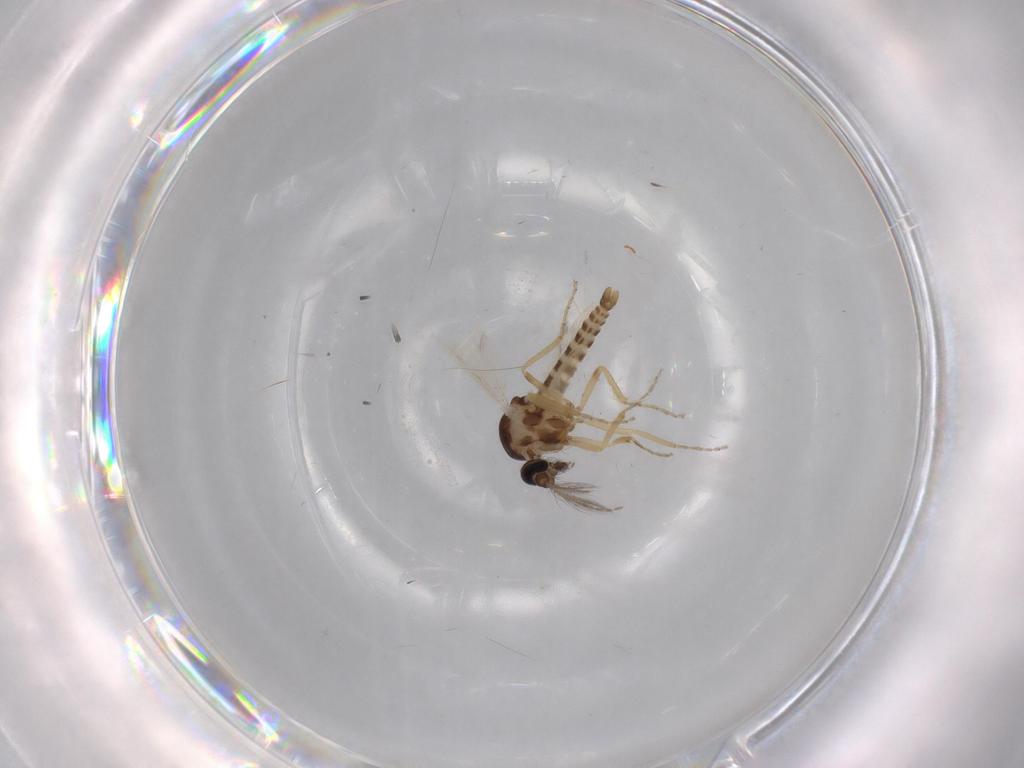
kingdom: Animalia
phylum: Arthropoda
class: Insecta
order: Diptera
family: Ceratopogonidae
